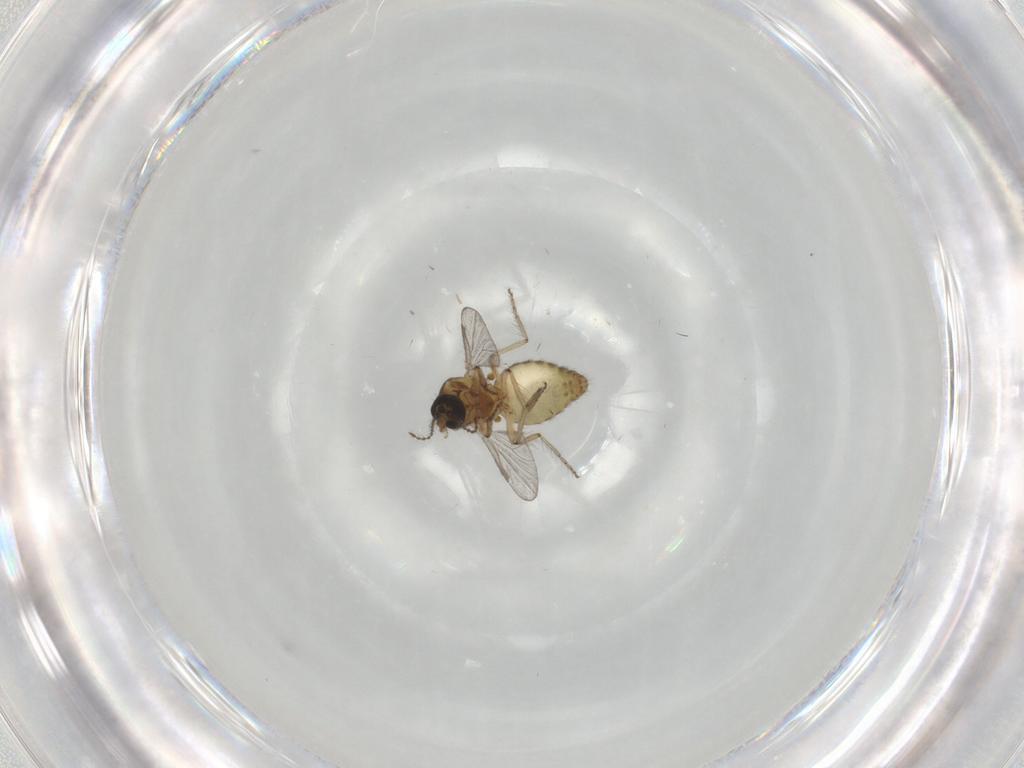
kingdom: Animalia
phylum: Arthropoda
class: Insecta
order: Diptera
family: Ceratopogonidae
